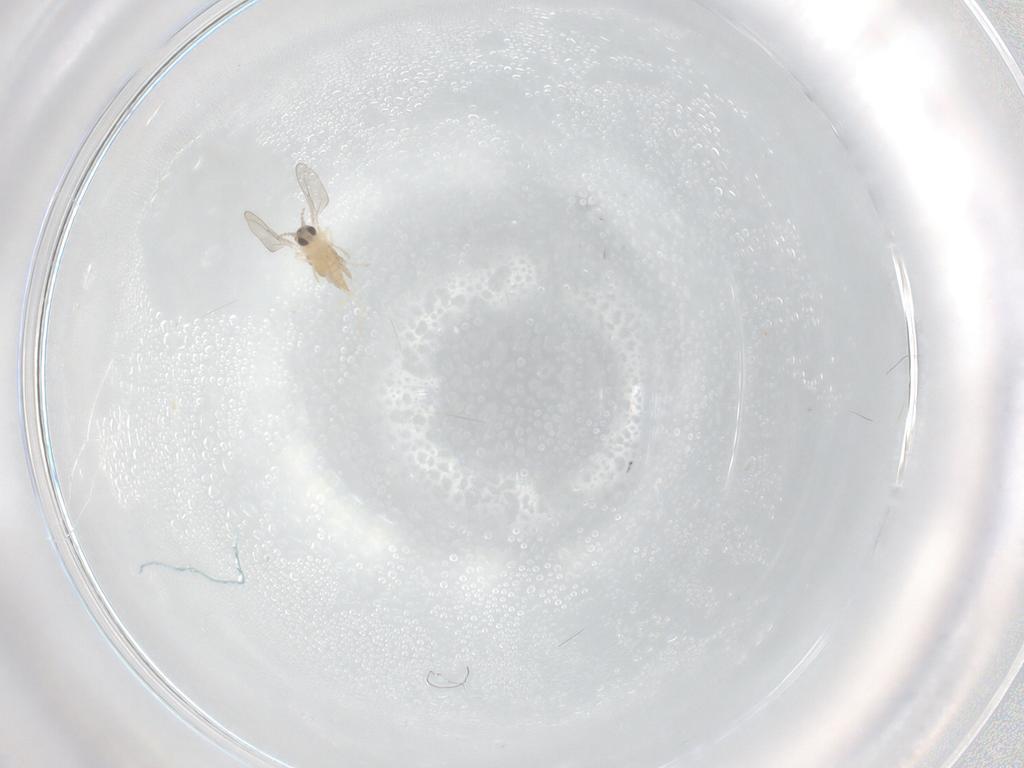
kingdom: Animalia
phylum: Arthropoda
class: Insecta
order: Diptera
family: Cecidomyiidae
